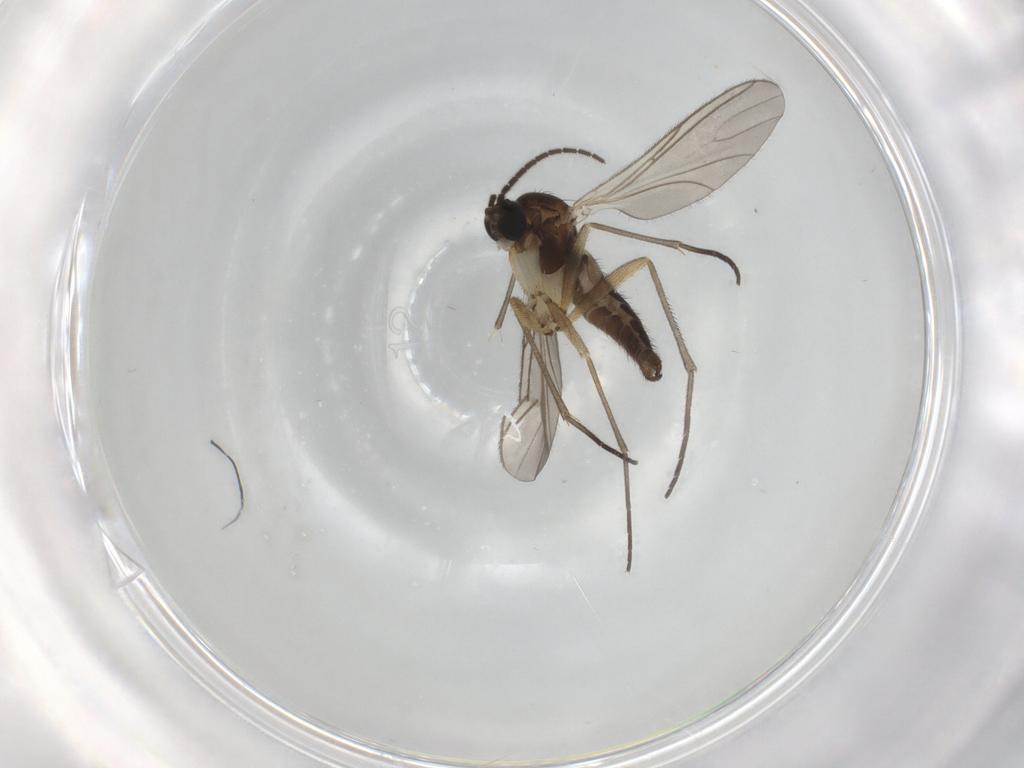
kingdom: Animalia
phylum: Arthropoda
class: Insecta
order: Diptera
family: Sciaridae
